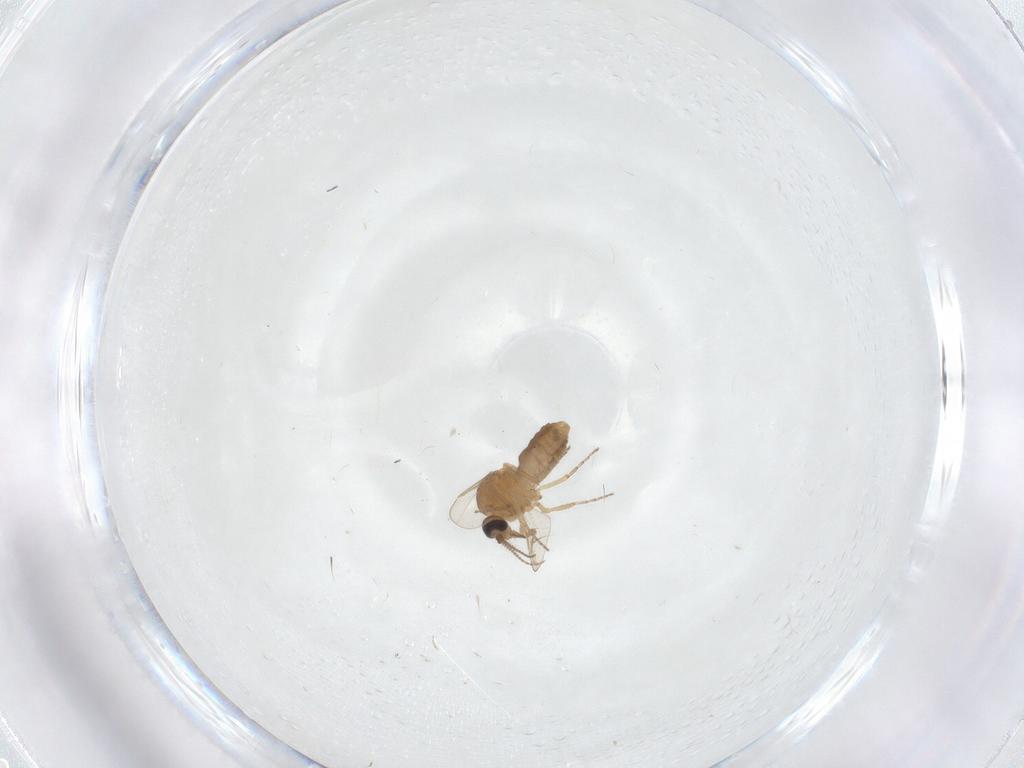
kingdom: Animalia
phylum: Arthropoda
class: Insecta
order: Diptera
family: Ceratopogonidae
